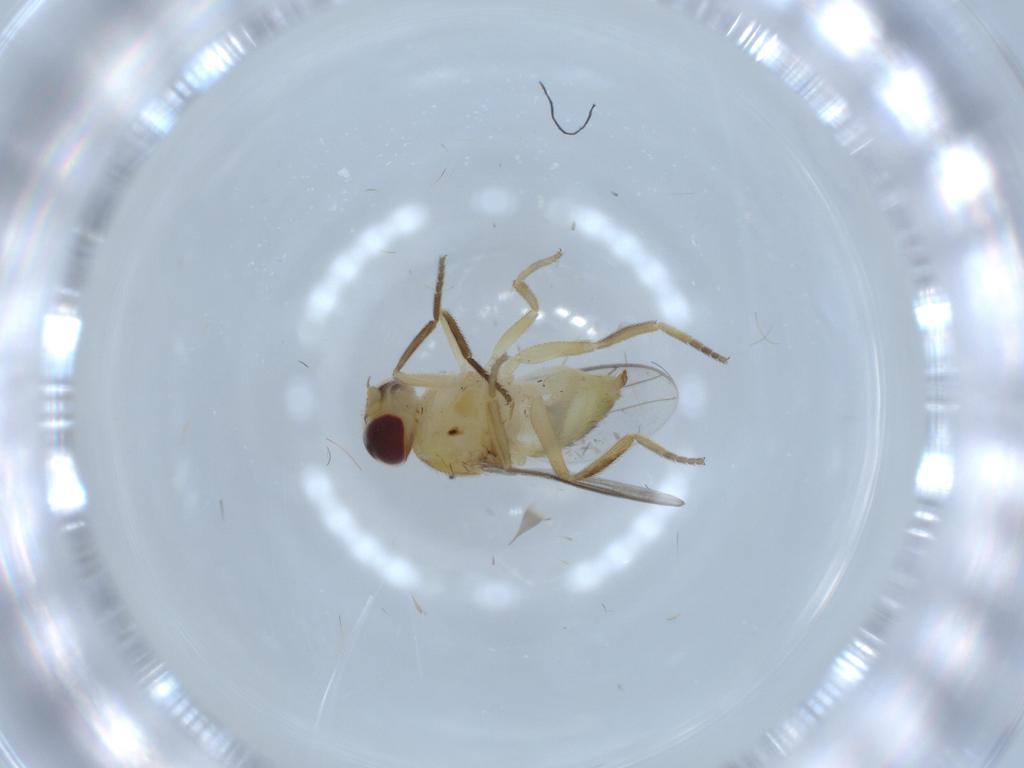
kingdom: Animalia
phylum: Arthropoda
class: Insecta
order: Diptera
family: Chloropidae
